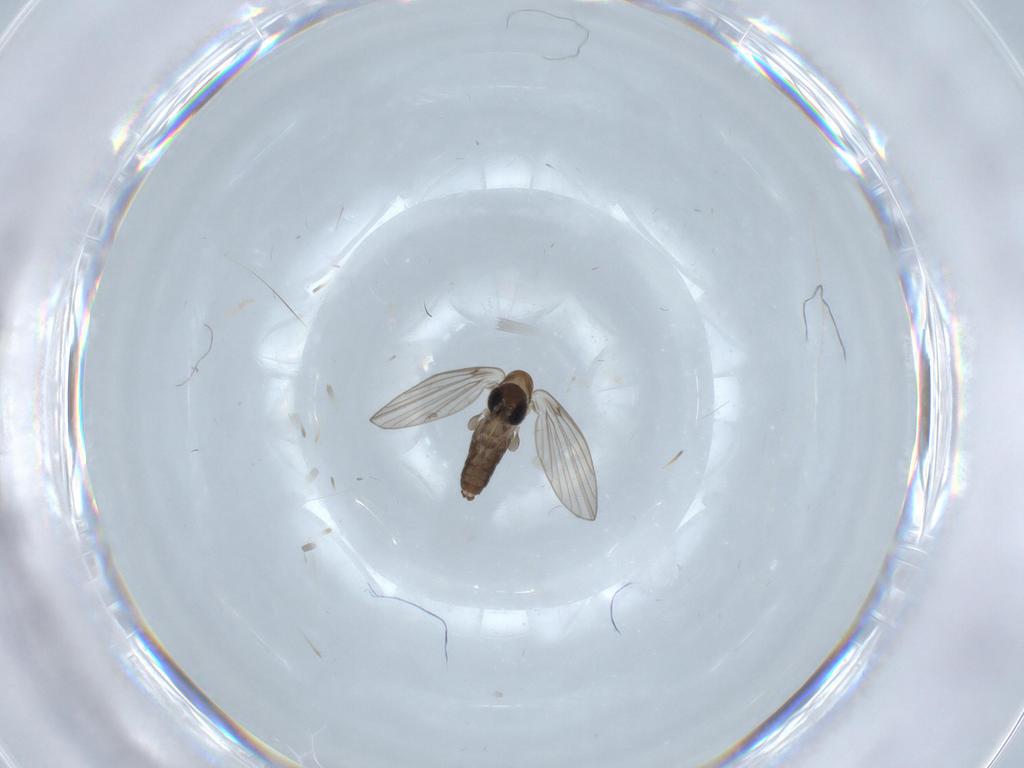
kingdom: Animalia
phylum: Arthropoda
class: Insecta
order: Diptera
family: Psychodidae
